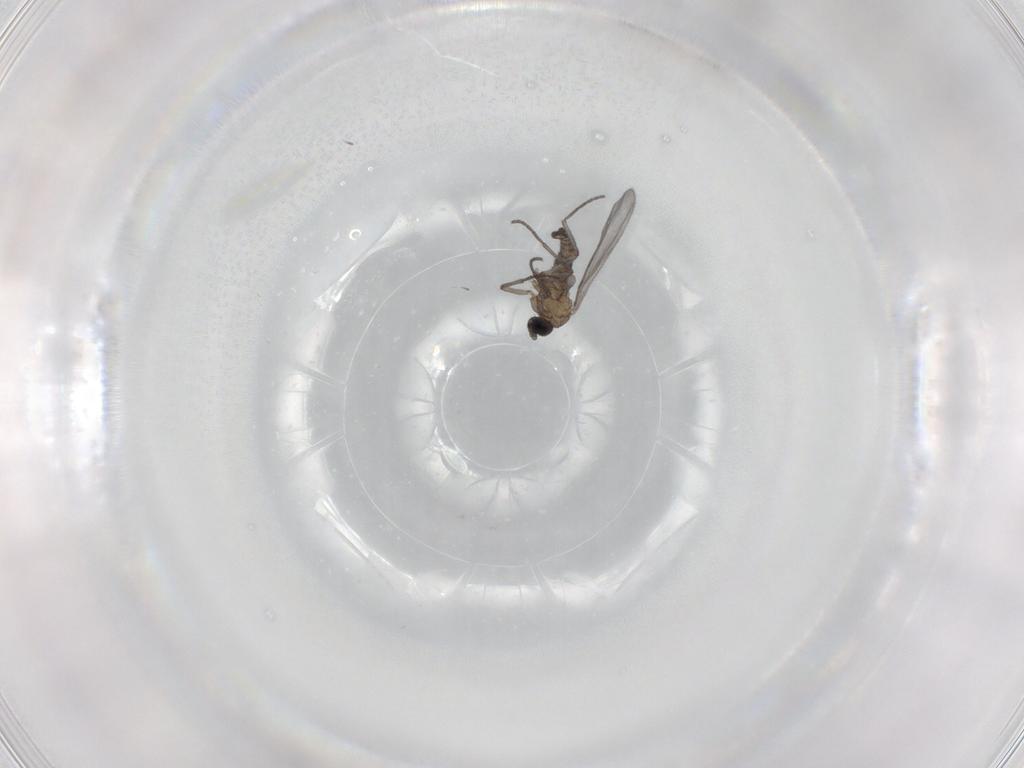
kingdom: Animalia
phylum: Arthropoda
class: Insecta
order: Diptera
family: Sciaridae
